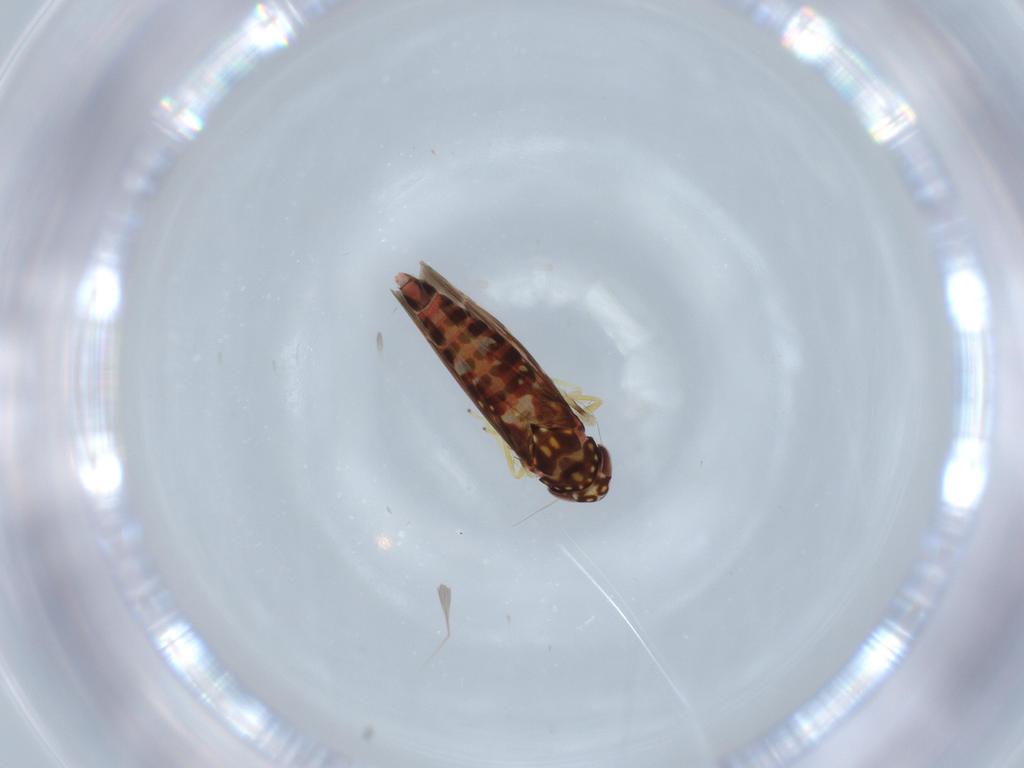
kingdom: Animalia
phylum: Arthropoda
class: Insecta
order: Hemiptera
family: Cicadellidae
